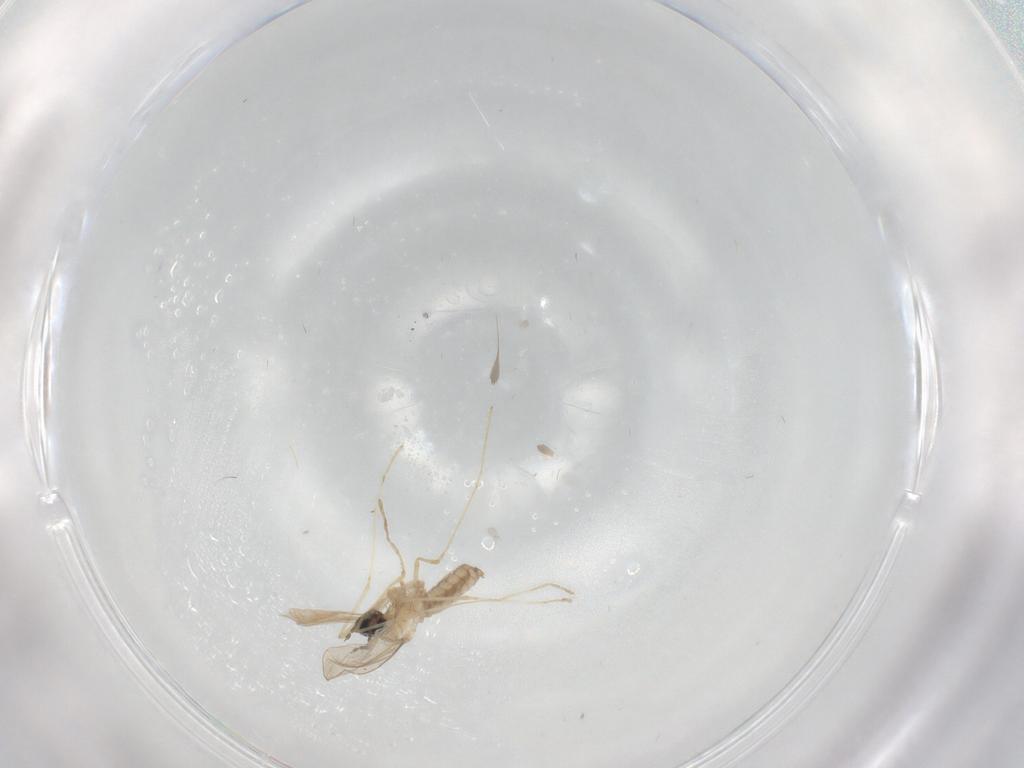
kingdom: Animalia
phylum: Arthropoda
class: Insecta
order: Diptera
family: Cecidomyiidae
